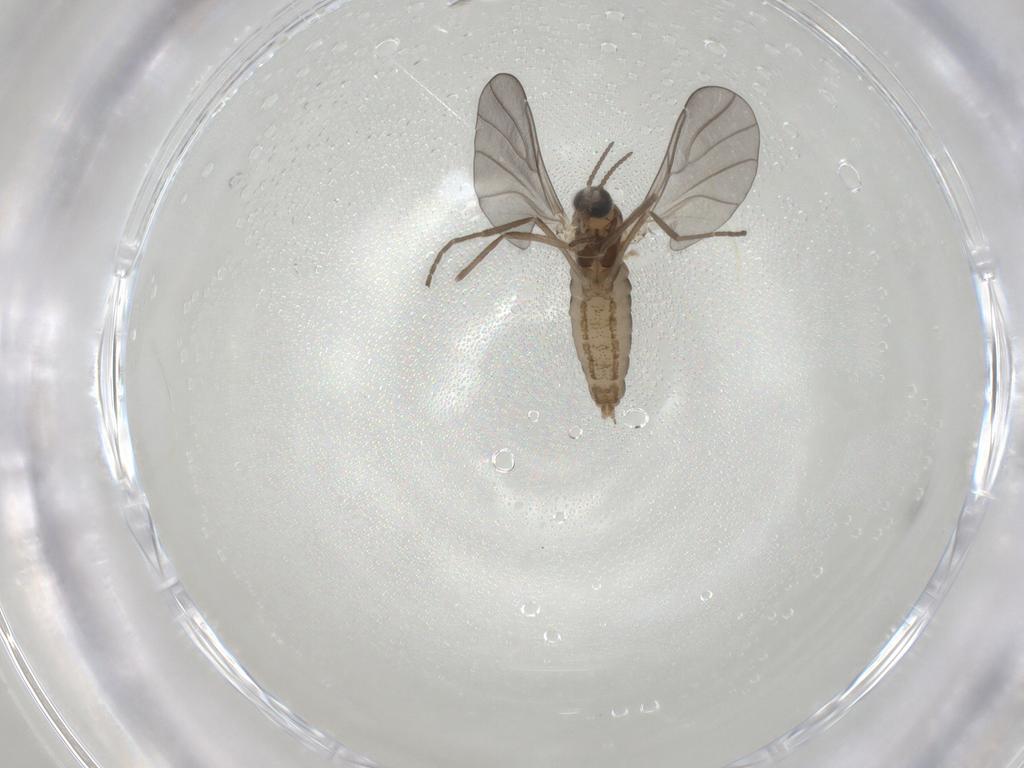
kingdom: Animalia
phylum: Arthropoda
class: Insecta
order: Diptera
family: Cecidomyiidae
